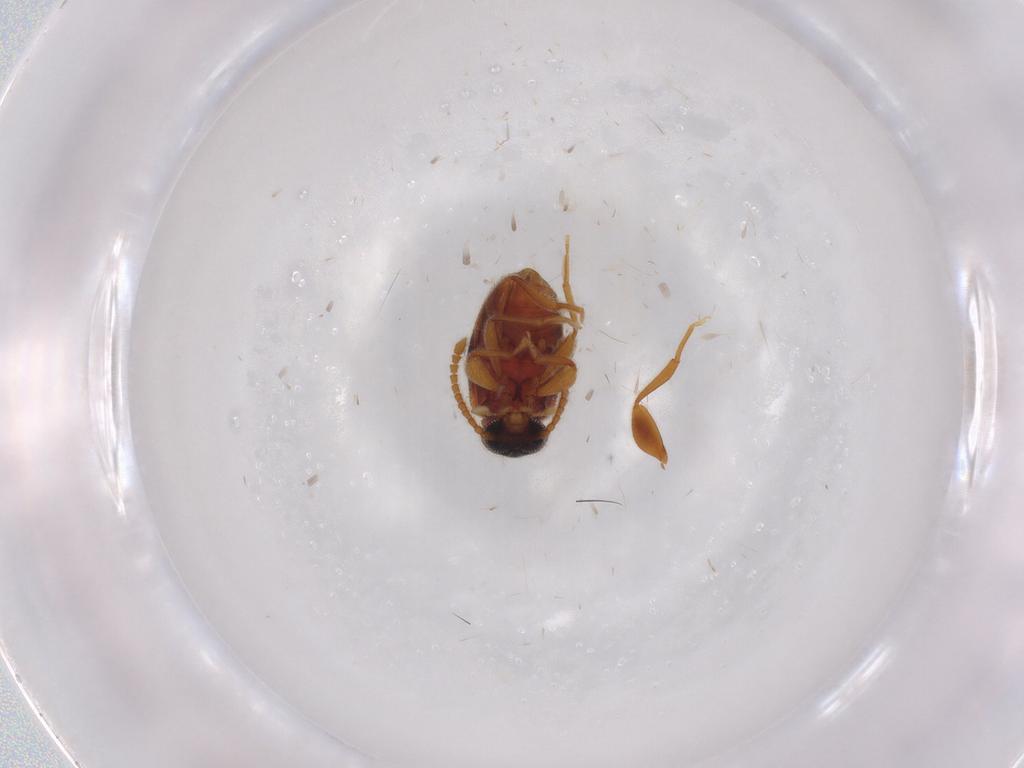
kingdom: Animalia
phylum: Arthropoda
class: Insecta
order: Coleoptera
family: Aderidae
